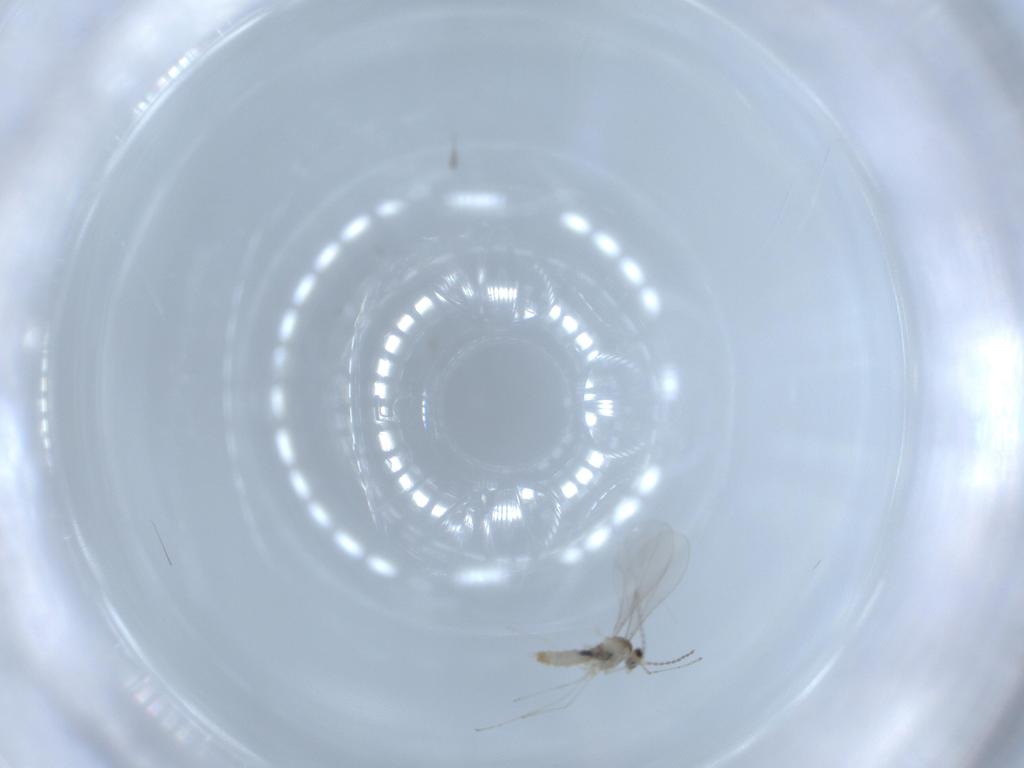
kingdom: Animalia
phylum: Arthropoda
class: Insecta
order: Diptera
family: Cecidomyiidae
